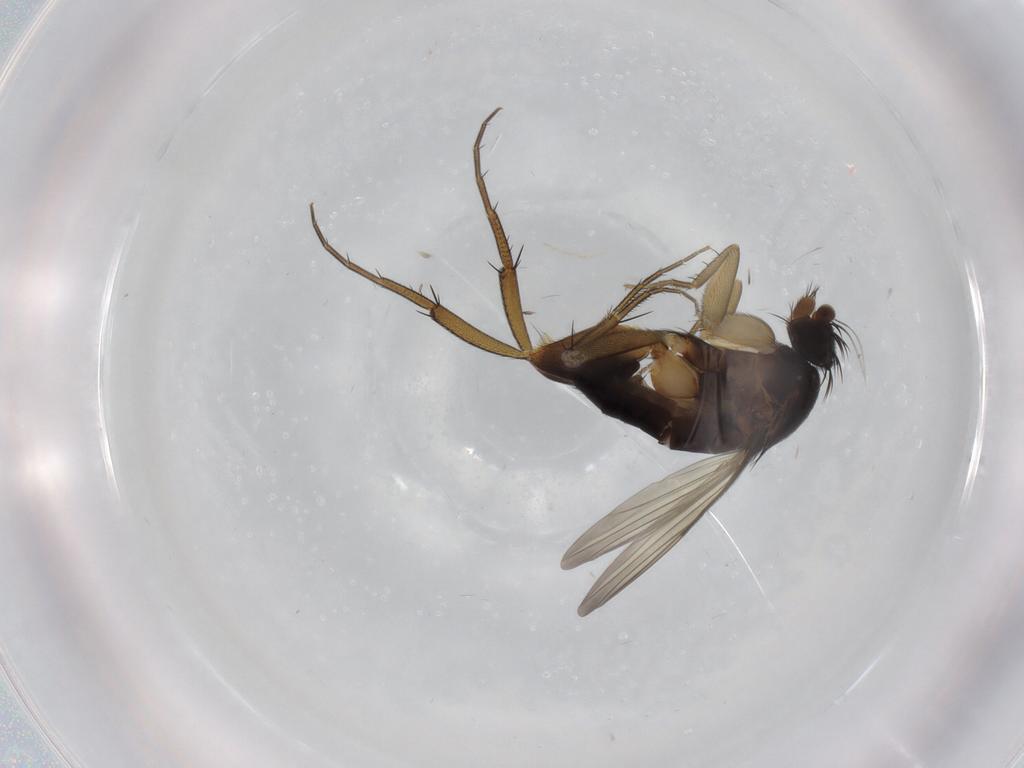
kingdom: Animalia
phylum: Arthropoda
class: Insecta
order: Diptera
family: Phoridae
